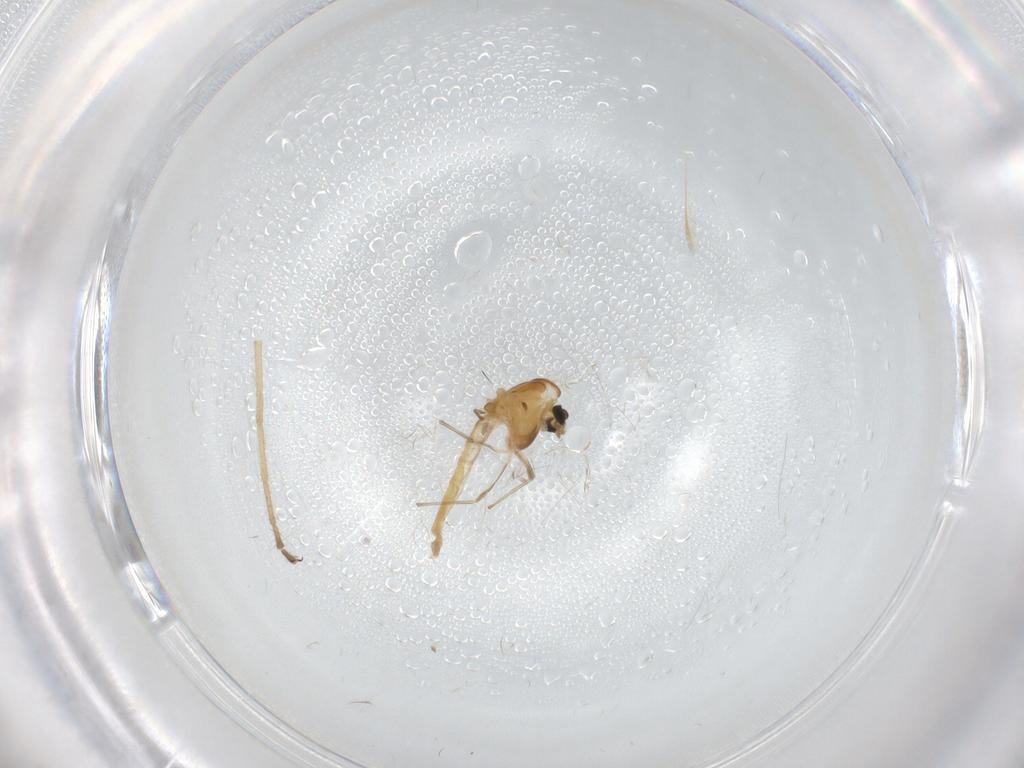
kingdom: Animalia
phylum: Arthropoda
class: Insecta
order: Diptera
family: Chironomidae
